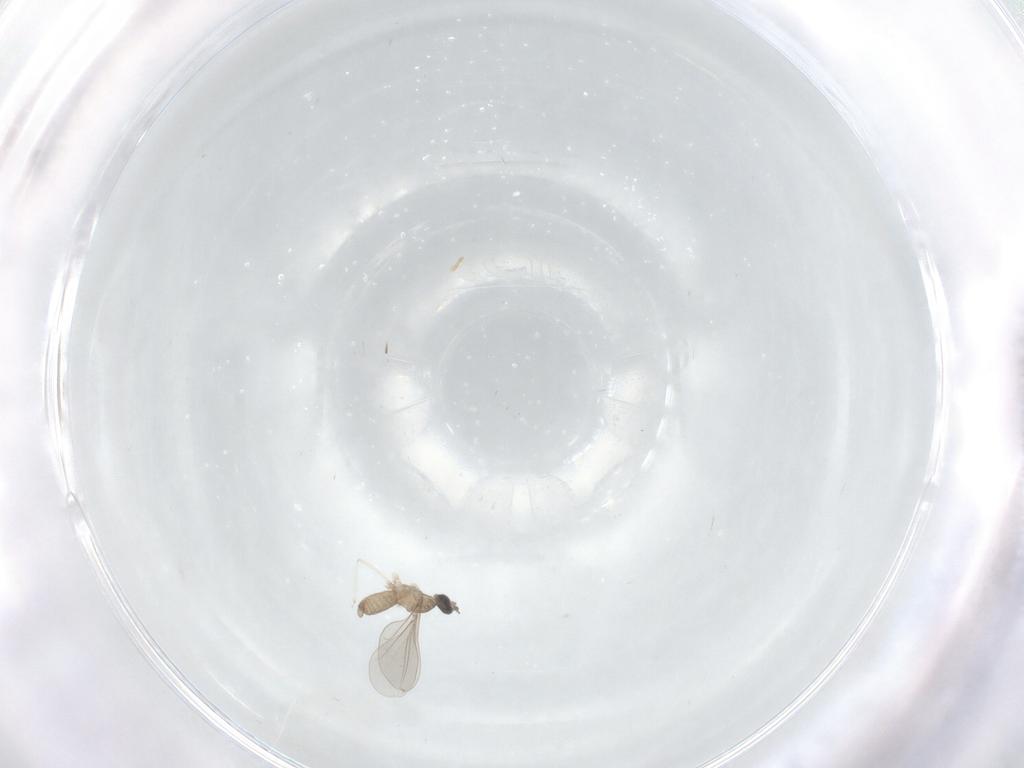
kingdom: Animalia
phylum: Arthropoda
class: Insecta
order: Diptera
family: Cecidomyiidae
